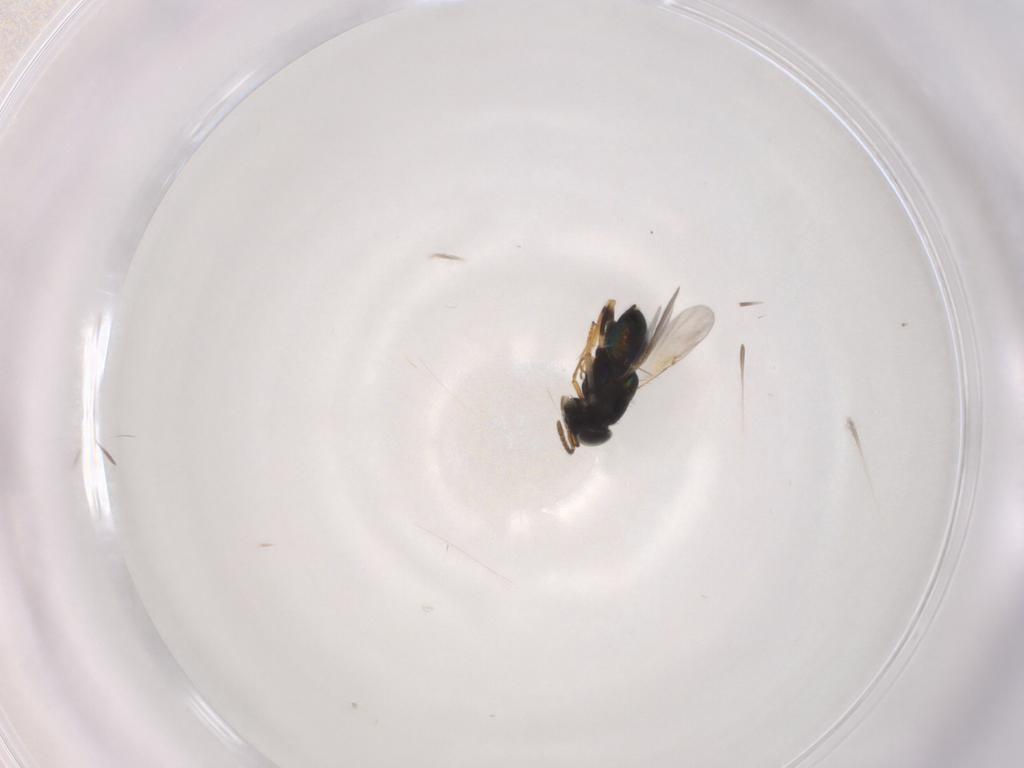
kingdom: Animalia
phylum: Arthropoda
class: Insecta
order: Hymenoptera
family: Encyrtidae
